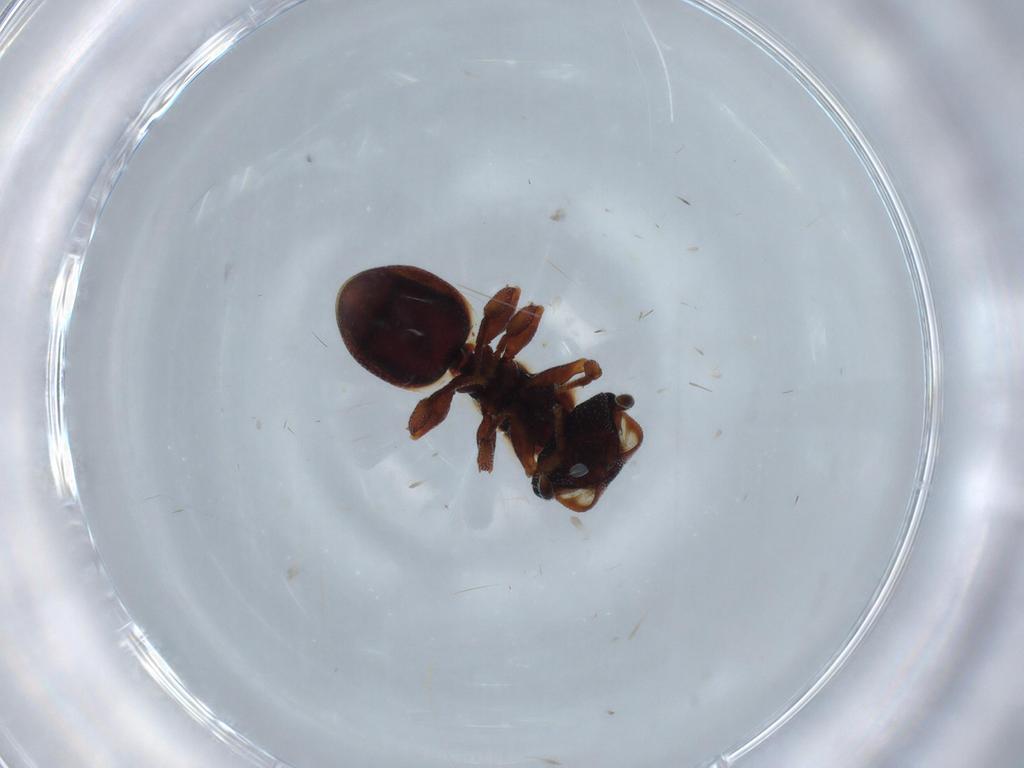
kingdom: Animalia
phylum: Arthropoda
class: Insecta
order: Hymenoptera
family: Formicidae
